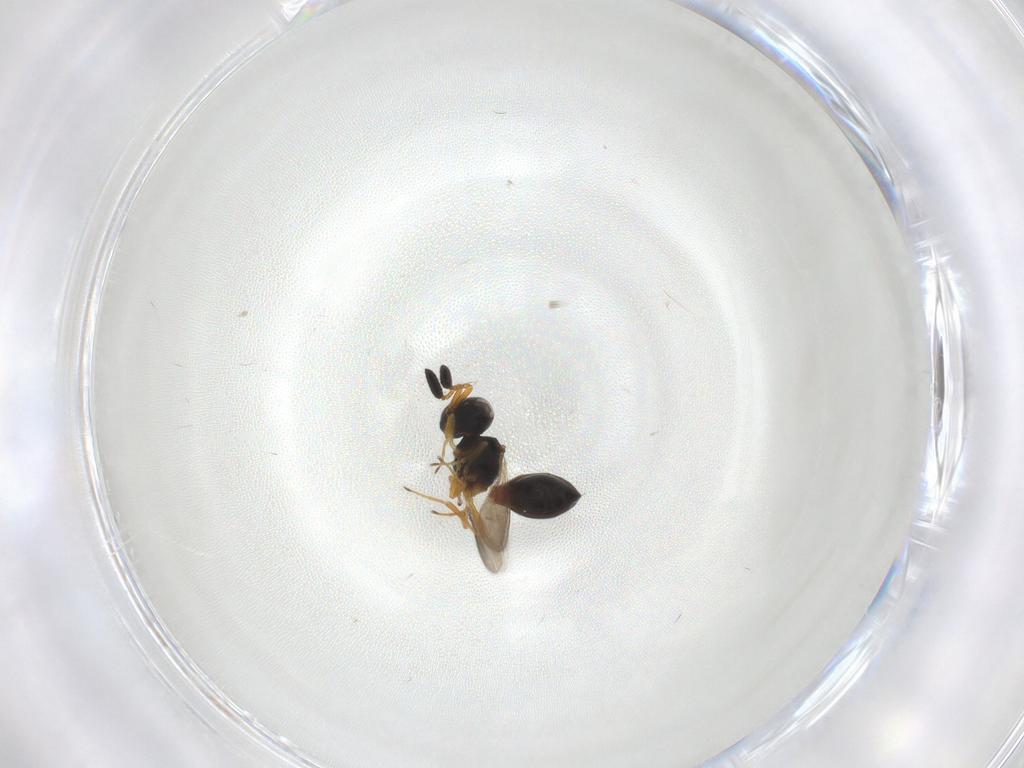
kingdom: Animalia
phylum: Arthropoda
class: Insecta
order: Hymenoptera
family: Scelionidae
